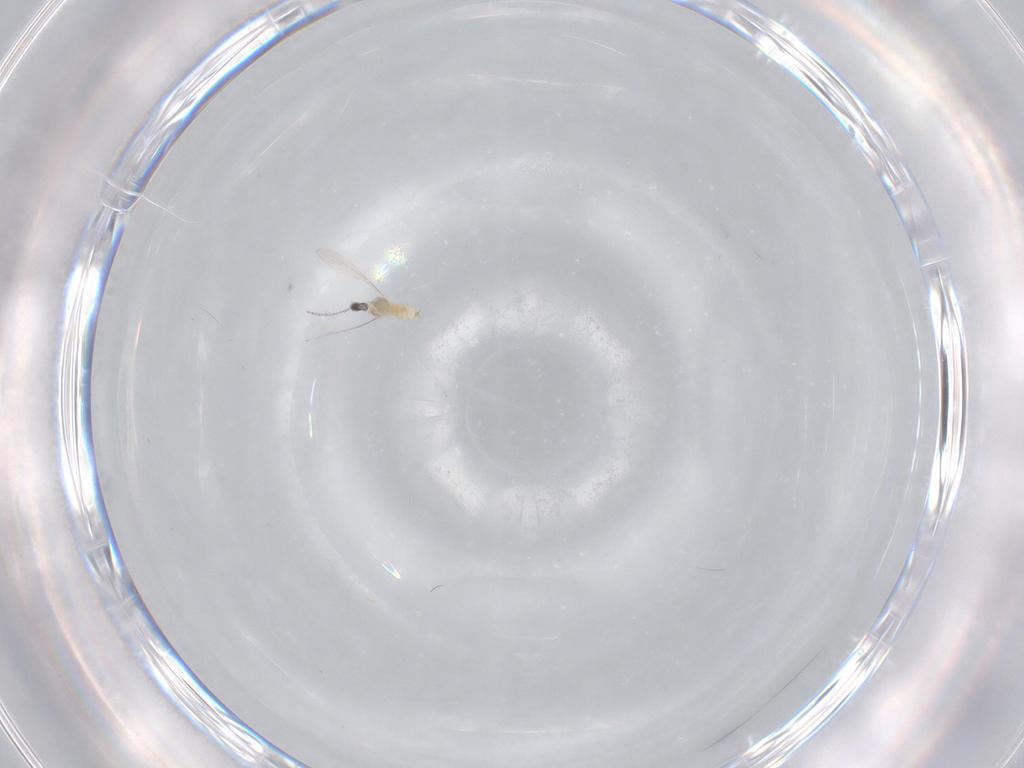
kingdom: Animalia
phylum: Arthropoda
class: Insecta
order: Diptera
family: Cecidomyiidae
